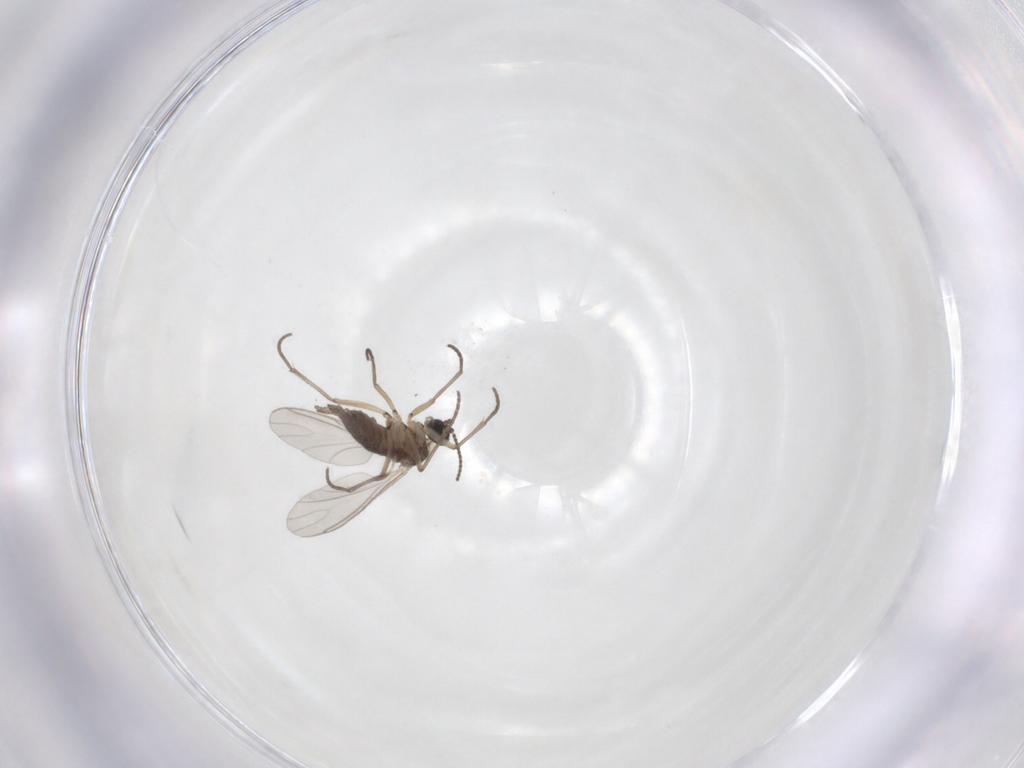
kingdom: Animalia
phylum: Arthropoda
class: Insecta
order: Diptera
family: Sciaridae
